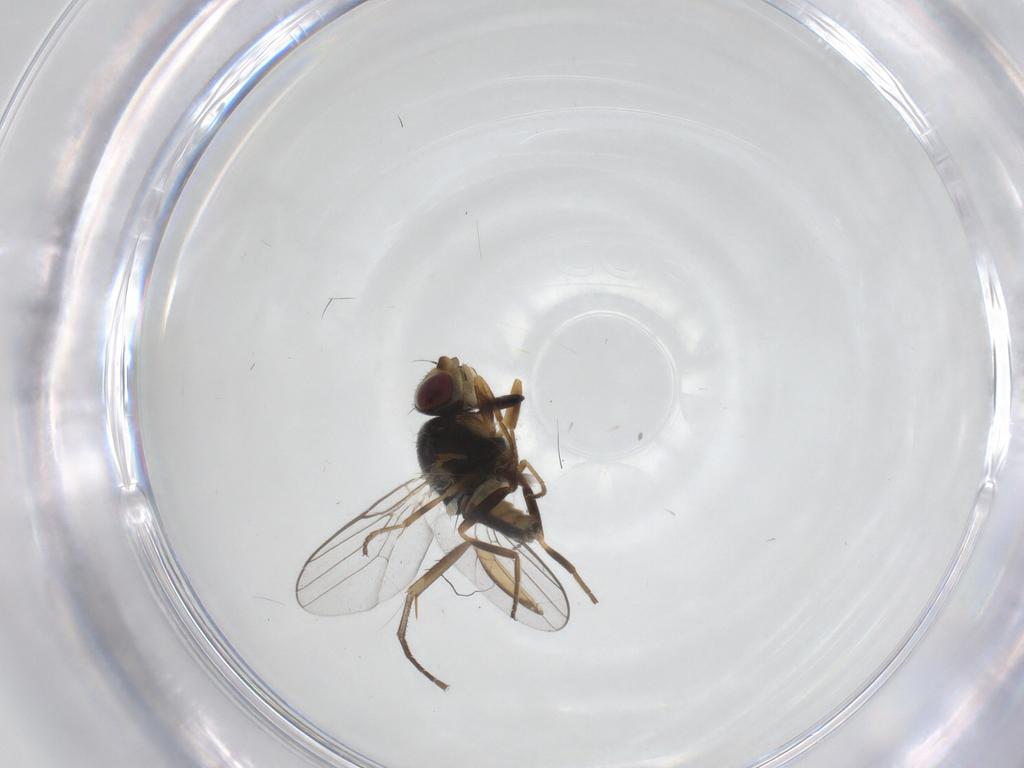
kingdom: Animalia
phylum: Arthropoda
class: Insecta
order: Diptera
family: Chloropidae
